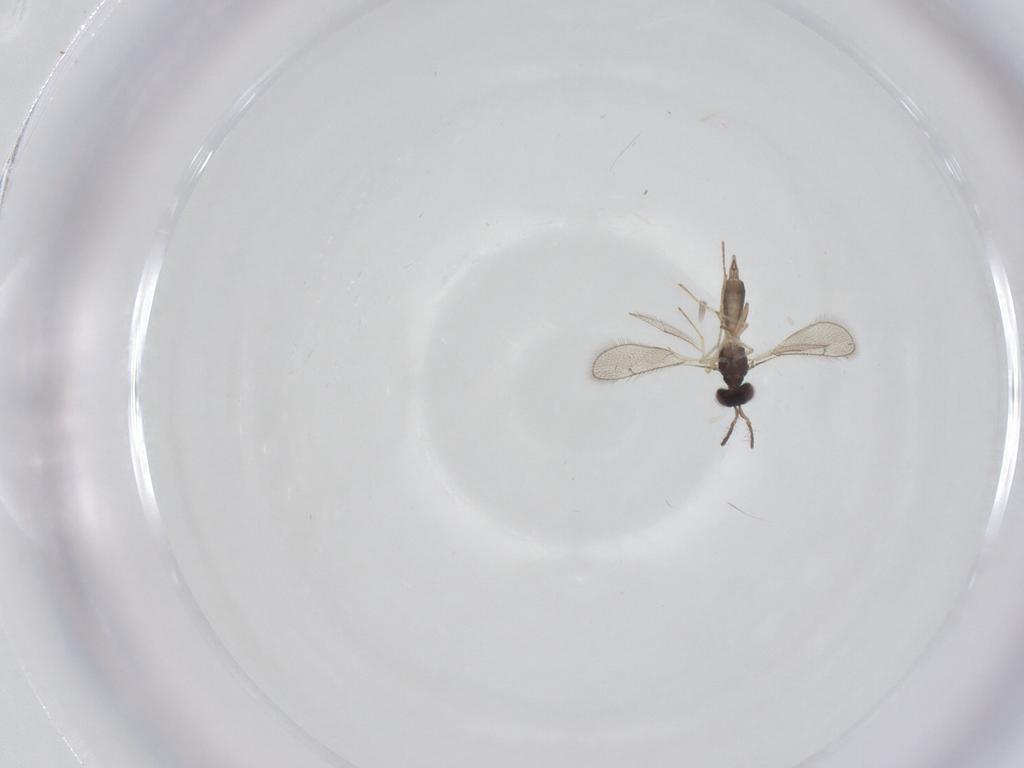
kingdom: Animalia
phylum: Arthropoda
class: Insecta
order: Hymenoptera
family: Eulophidae
